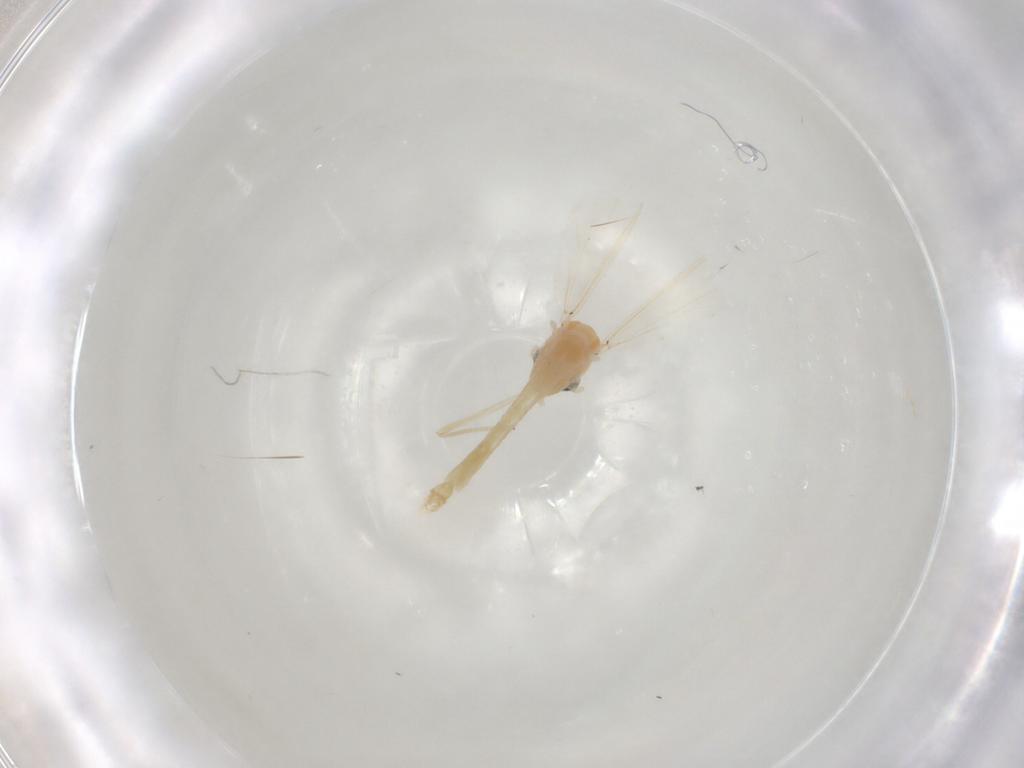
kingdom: Animalia
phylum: Arthropoda
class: Insecta
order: Diptera
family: Chironomidae
